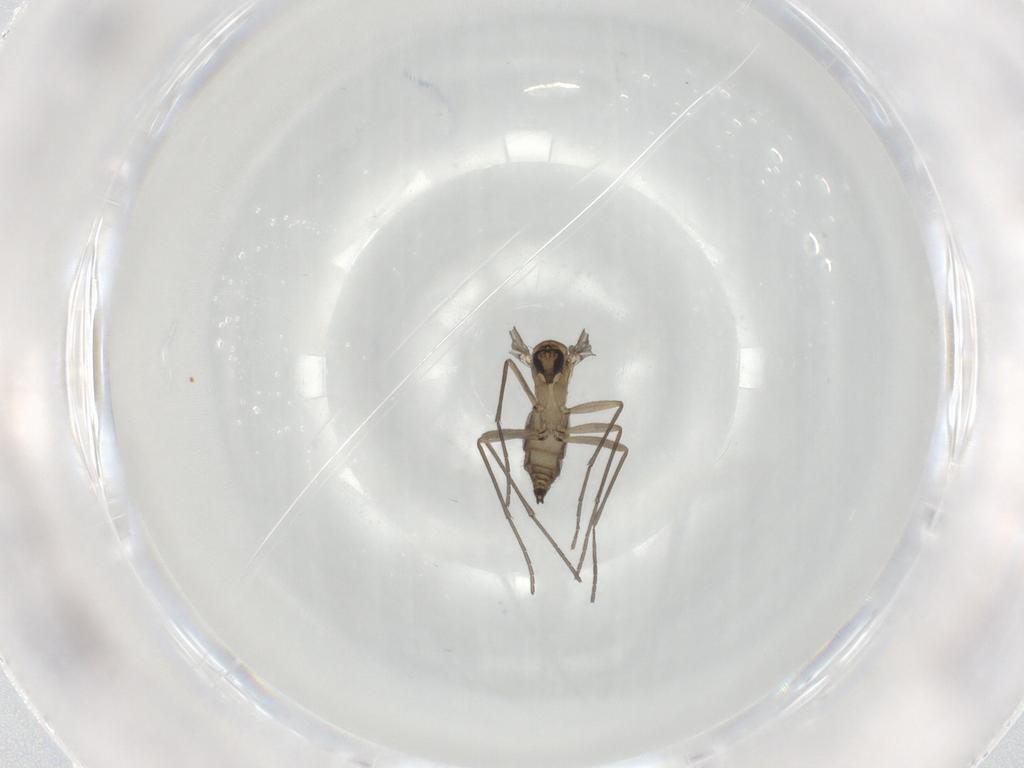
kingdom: Animalia
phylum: Arthropoda
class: Insecta
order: Diptera
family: Sciaridae
